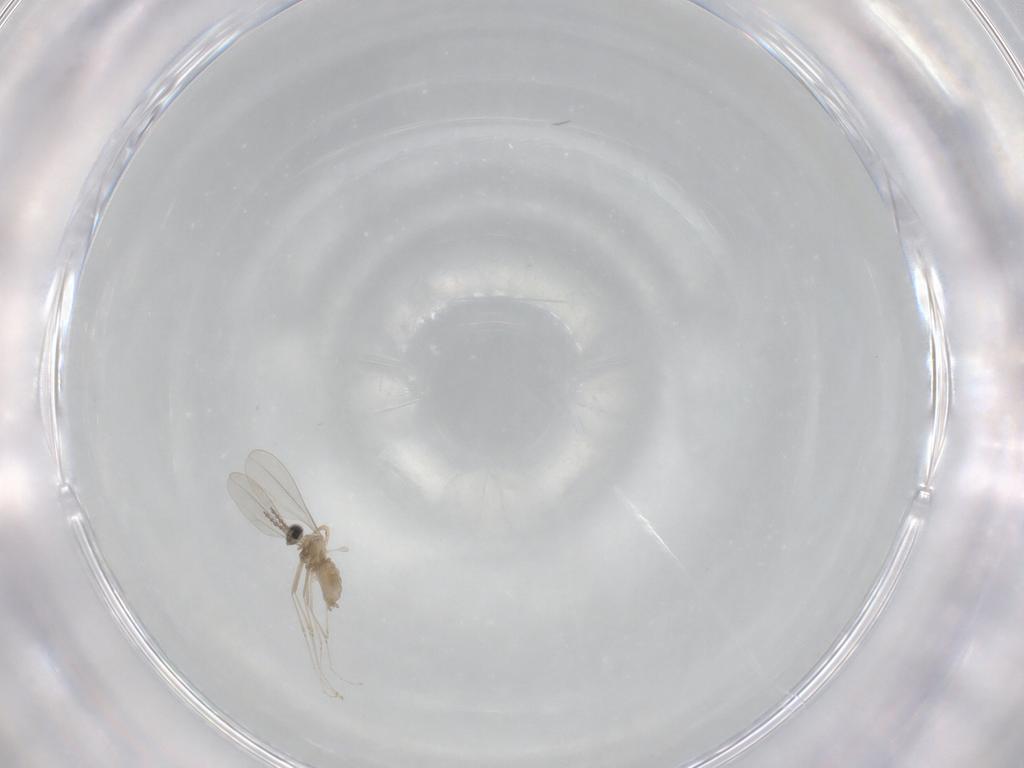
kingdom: Animalia
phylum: Arthropoda
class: Insecta
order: Diptera
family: Cecidomyiidae
